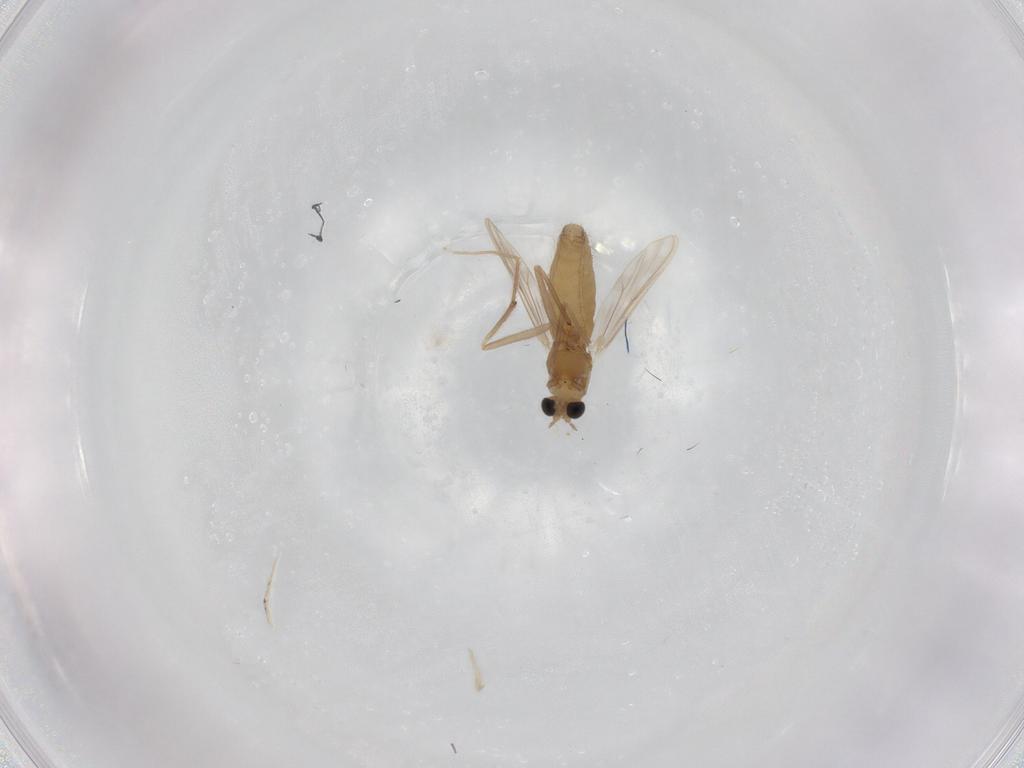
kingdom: Animalia
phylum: Arthropoda
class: Insecta
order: Diptera
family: Chironomidae
